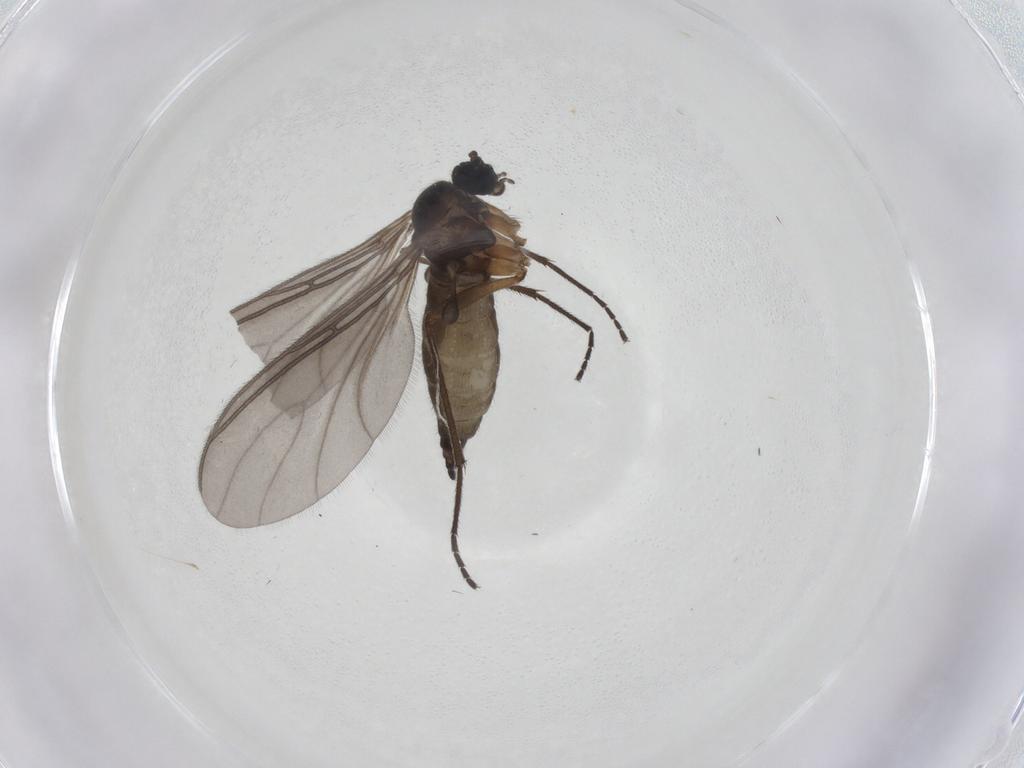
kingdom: Animalia
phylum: Arthropoda
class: Insecta
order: Diptera
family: Sciaridae
